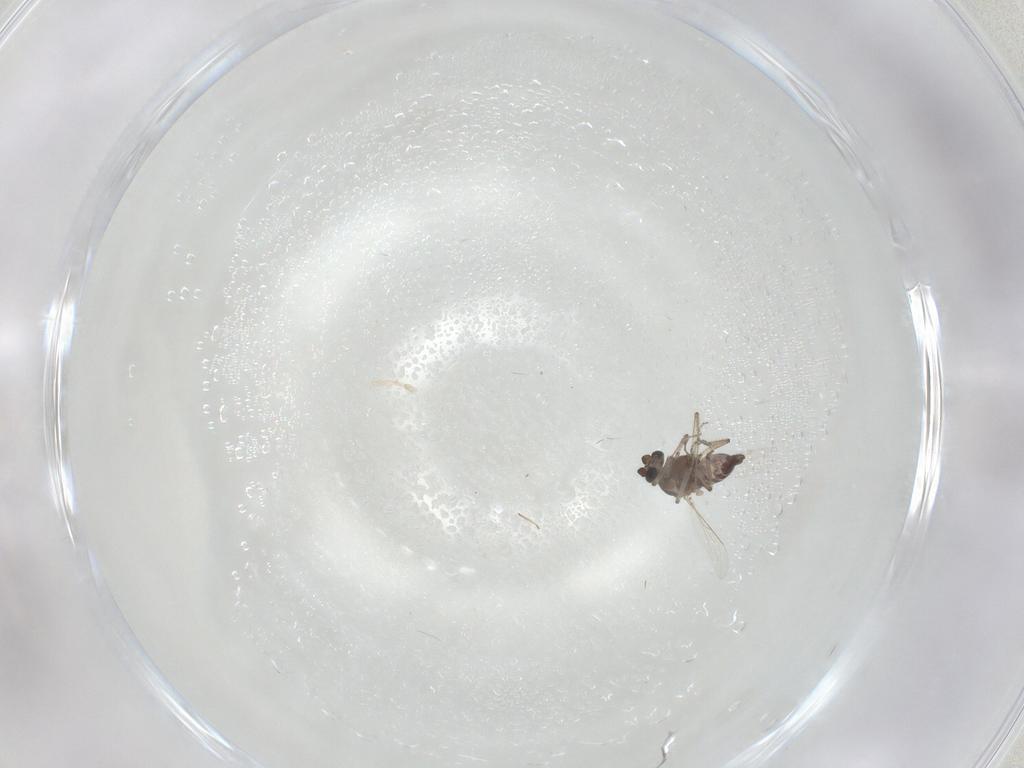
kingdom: Animalia
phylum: Arthropoda
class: Insecta
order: Diptera
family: Ceratopogonidae
